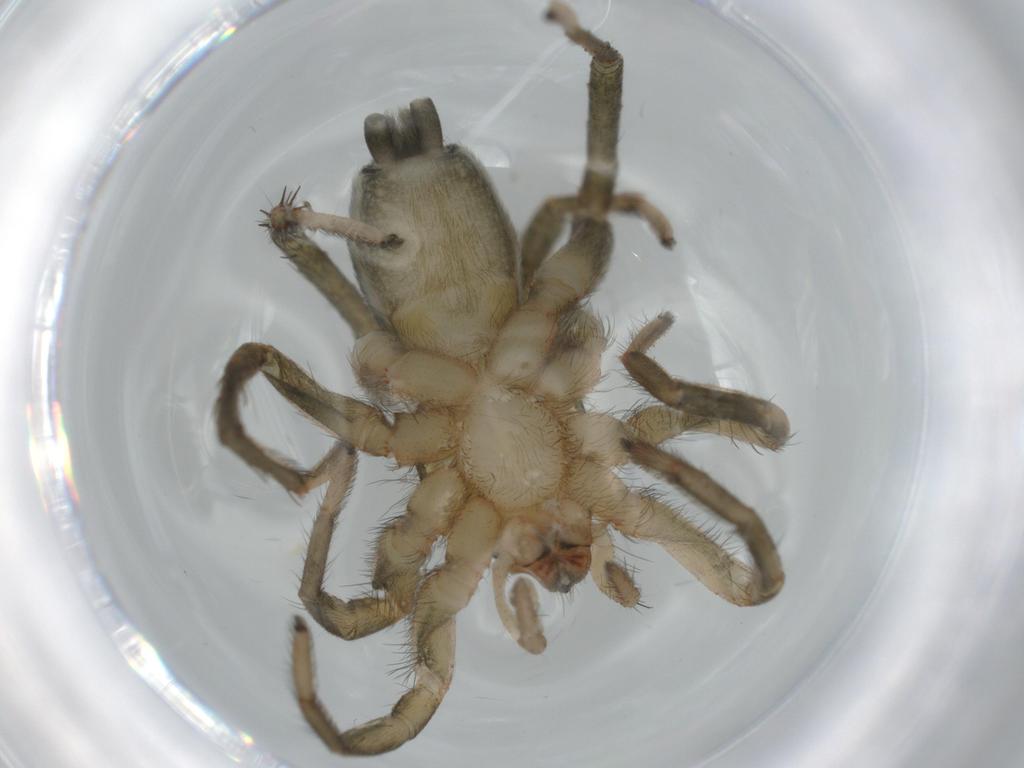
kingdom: Animalia
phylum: Arthropoda
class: Arachnida
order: Araneae
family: Gnaphosidae
